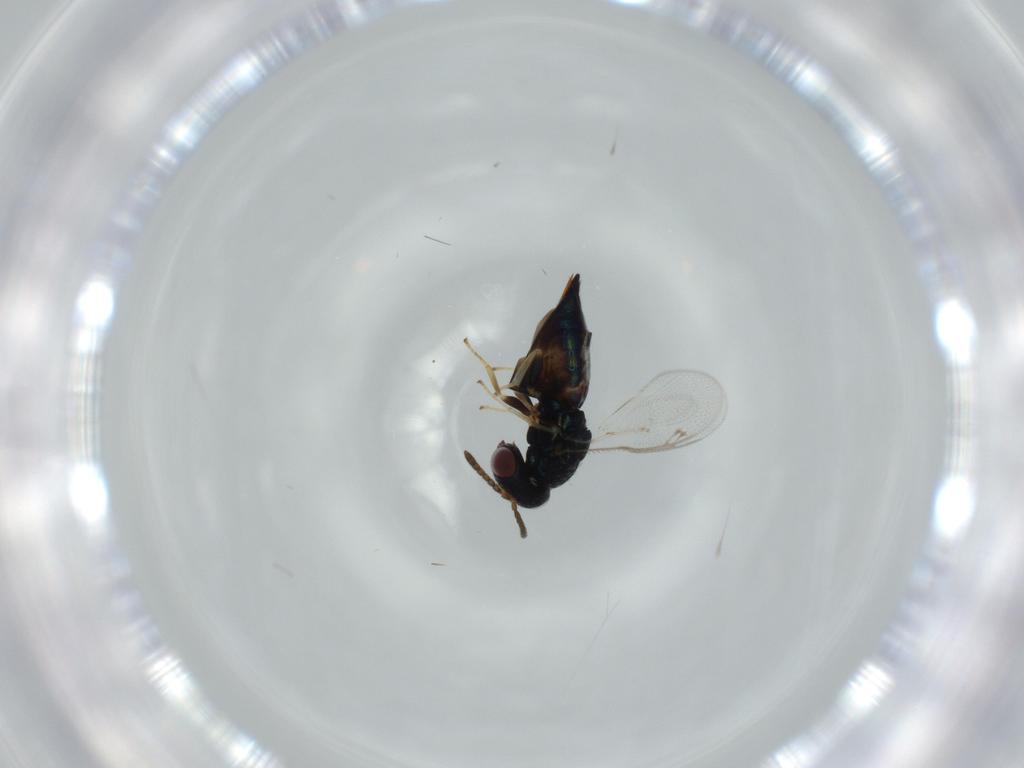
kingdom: Animalia
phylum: Arthropoda
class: Insecta
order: Hymenoptera
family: Pteromalidae
